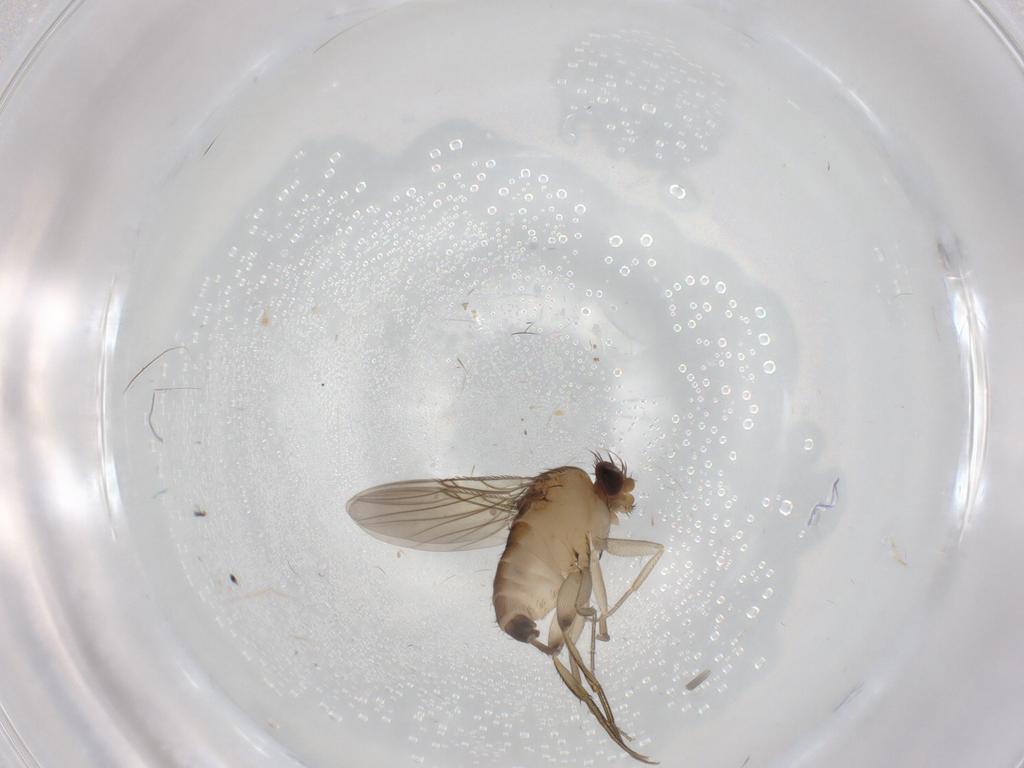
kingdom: Animalia
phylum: Arthropoda
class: Insecta
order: Diptera
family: Phoridae
